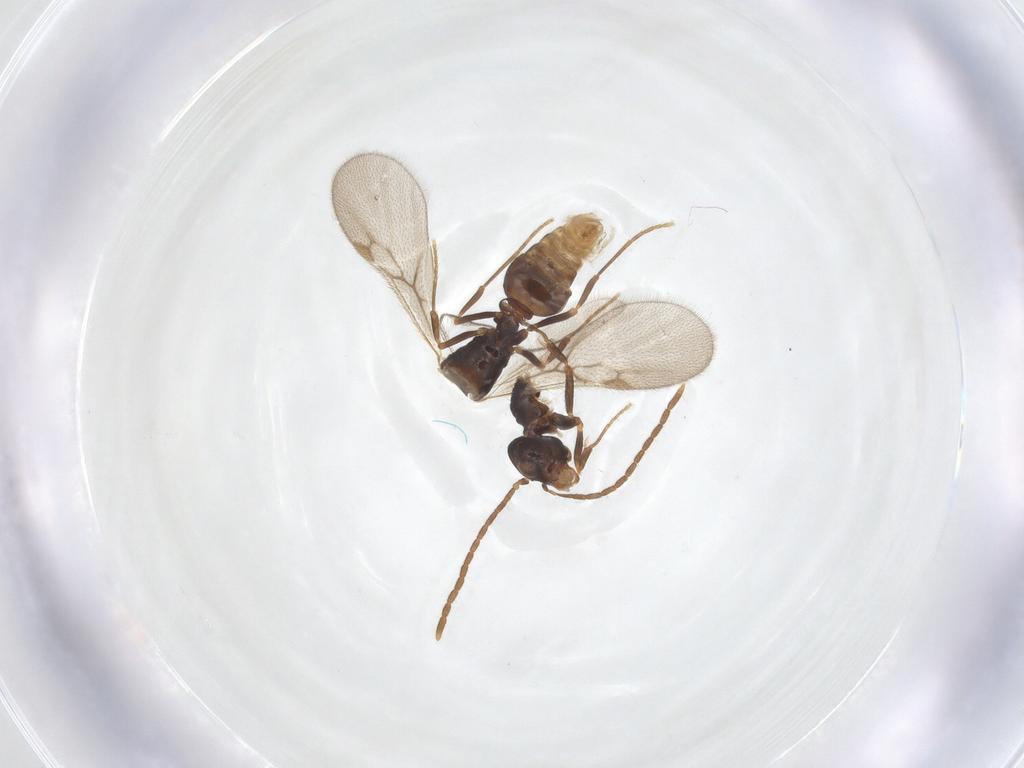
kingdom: Animalia
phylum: Arthropoda
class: Insecta
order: Hymenoptera
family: Formicidae
